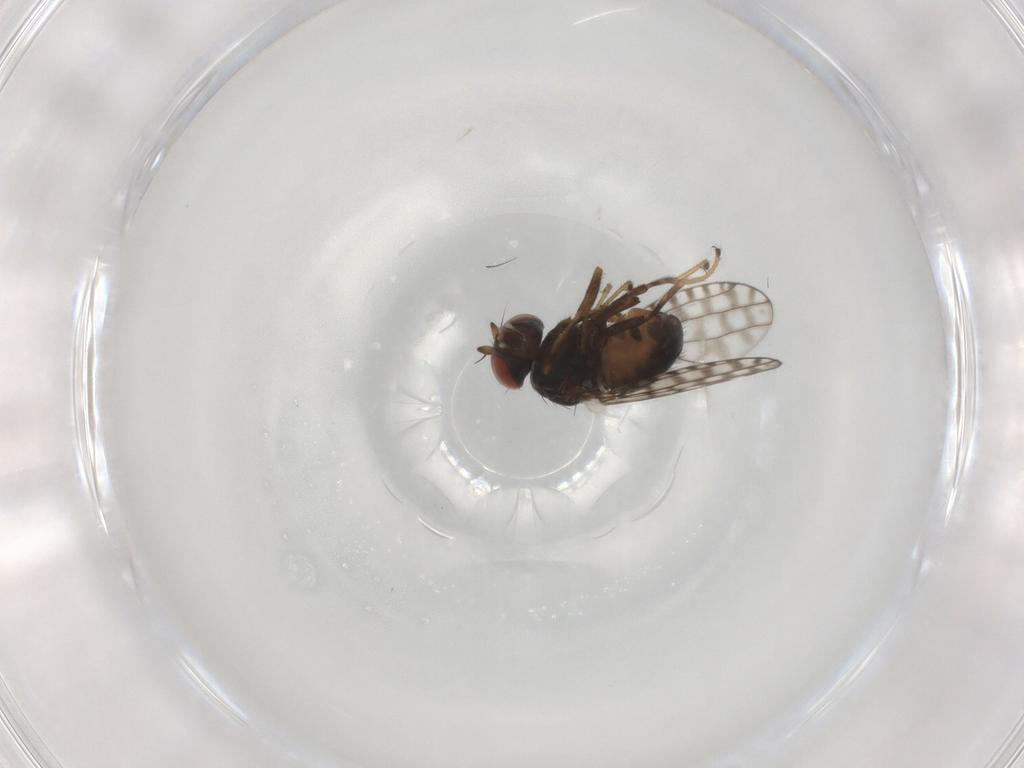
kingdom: Animalia
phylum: Arthropoda
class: Insecta
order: Diptera
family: Ephydridae
